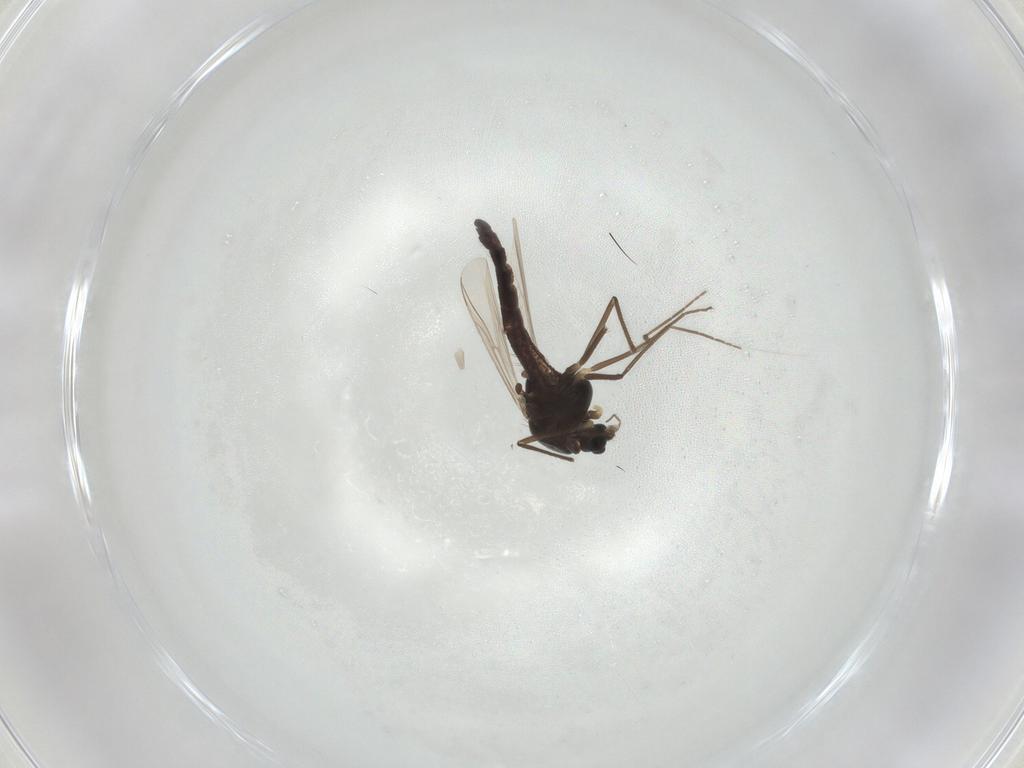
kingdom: Animalia
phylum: Arthropoda
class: Insecta
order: Diptera
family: Chironomidae
